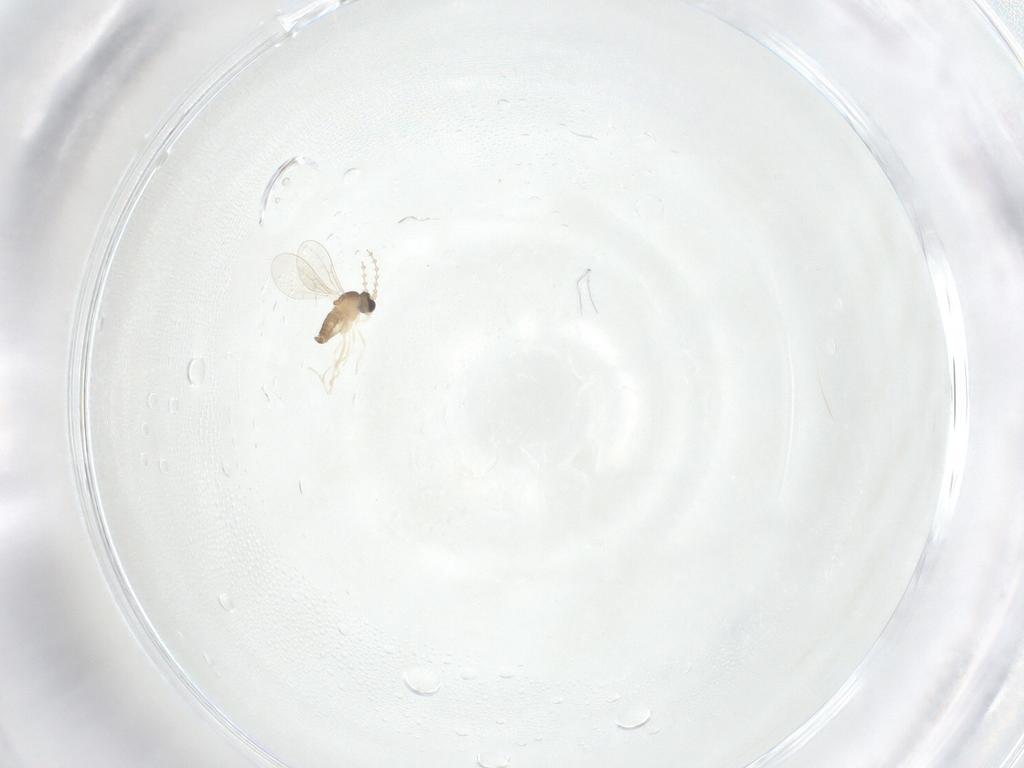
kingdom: Animalia
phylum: Arthropoda
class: Insecta
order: Diptera
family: Cecidomyiidae
